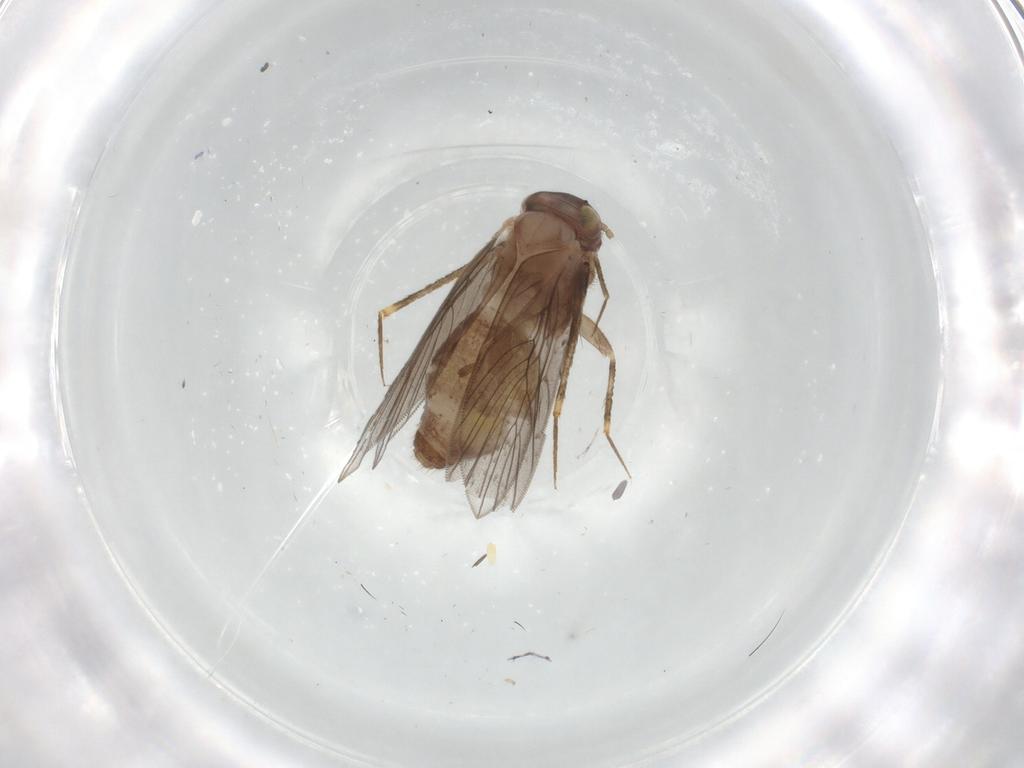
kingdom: Animalia
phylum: Arthropoda
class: Insecta
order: Psocodea
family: Lepidopsocidae
